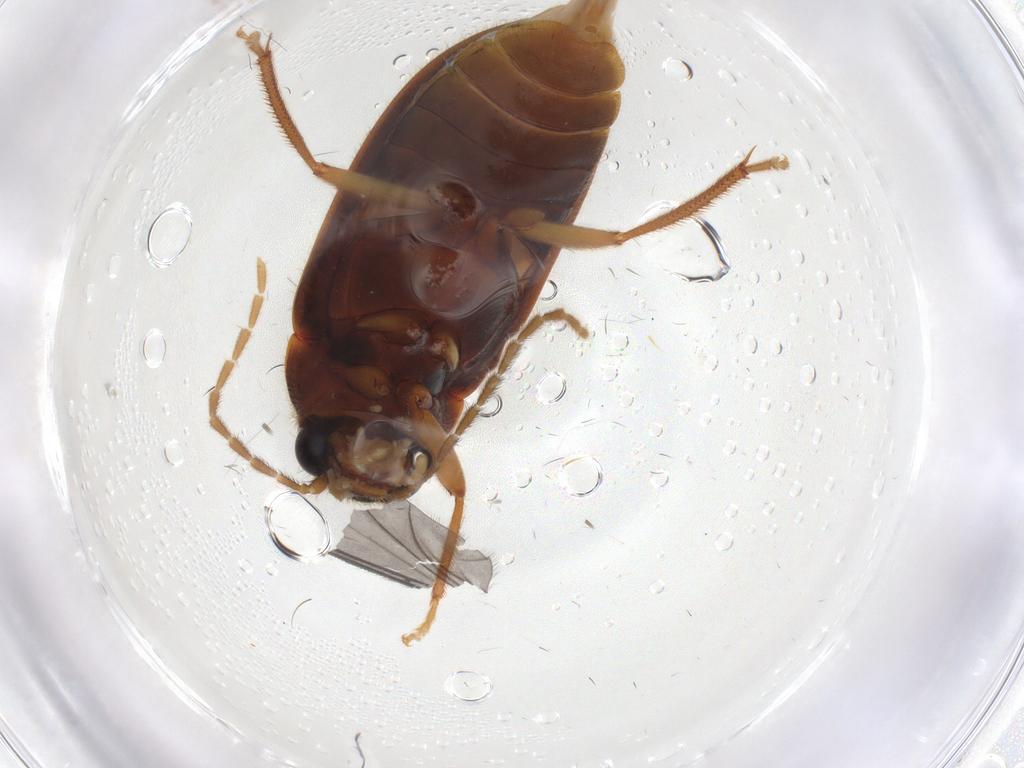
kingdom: Animalia
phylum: Arthropoda
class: Insecta
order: Coleoptera
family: Ptilodactylidae
